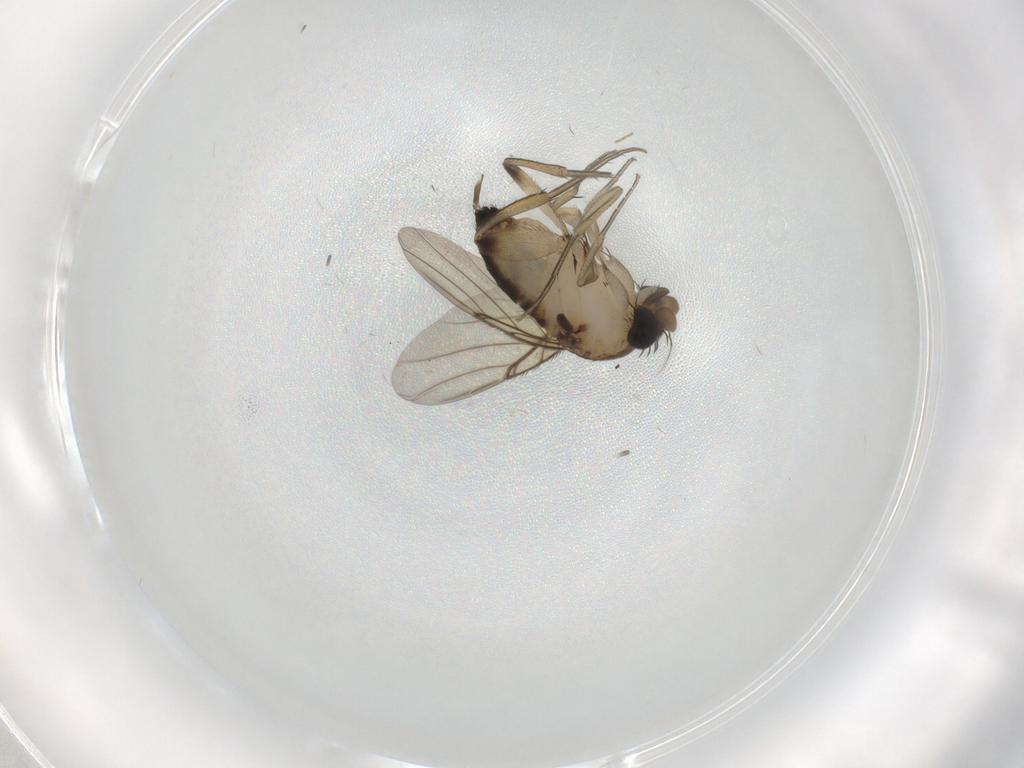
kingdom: Animalia
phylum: Arthropoda
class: Insecta
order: Diptera
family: Phoridae
